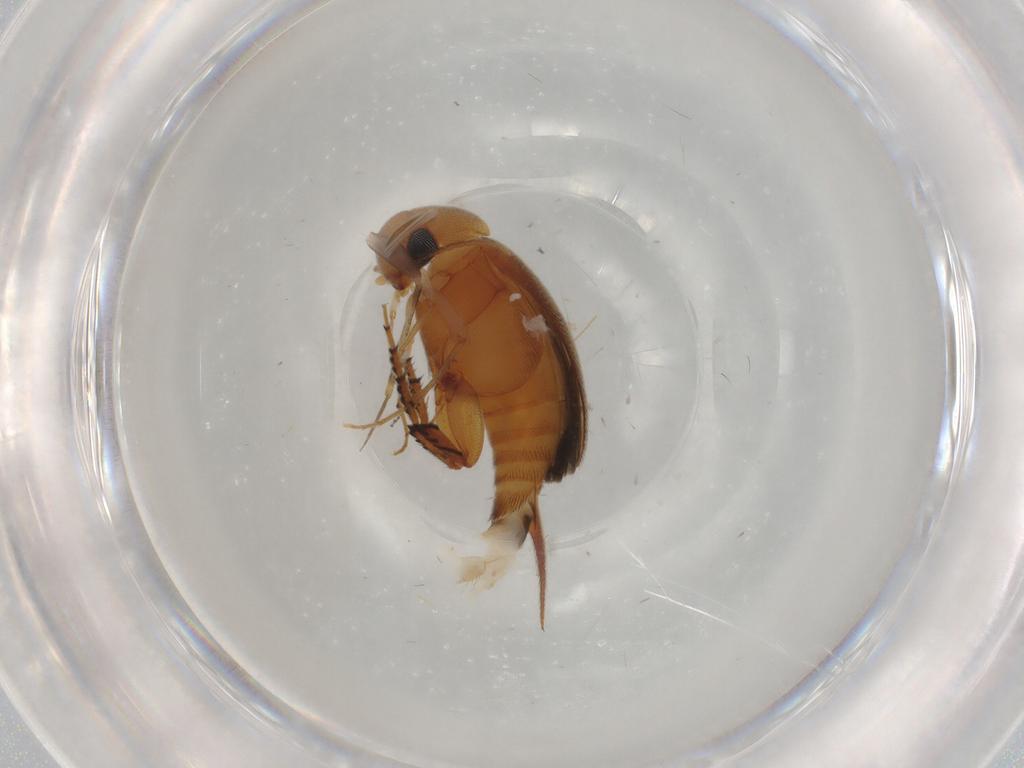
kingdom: Animalia
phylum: Arthropoda
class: Insecta
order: Coleoptera
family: Mordellidae
